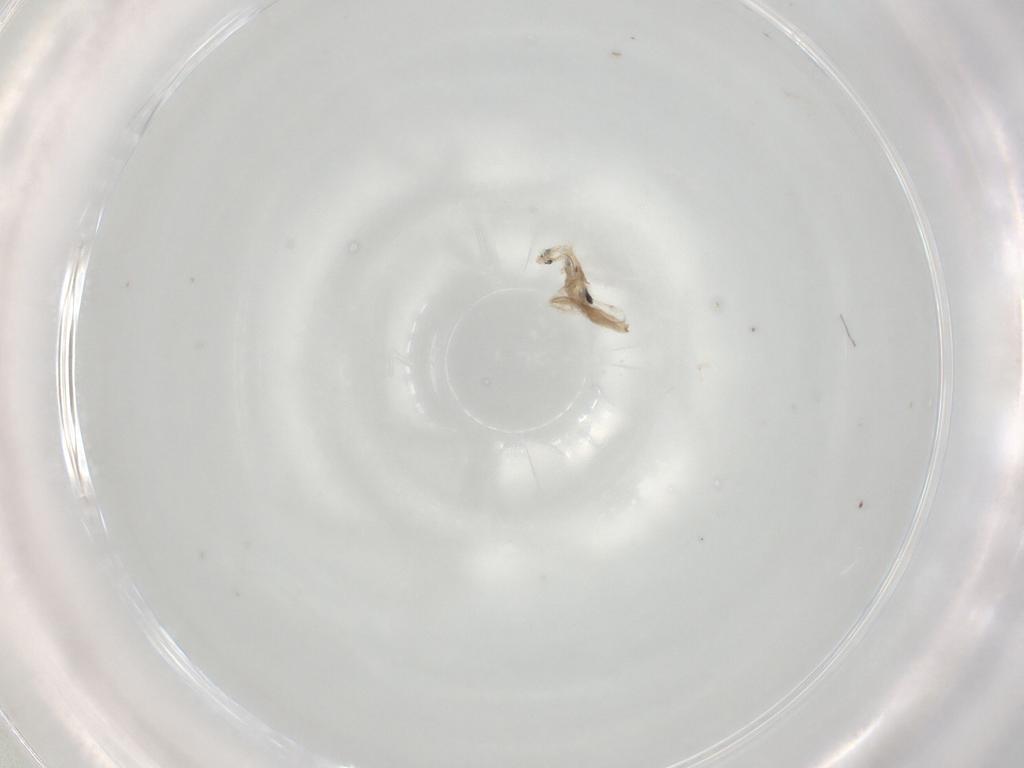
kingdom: Animalia
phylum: Arthropoda
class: Collembola
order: Entomobryomorpha
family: Entomobryidae
